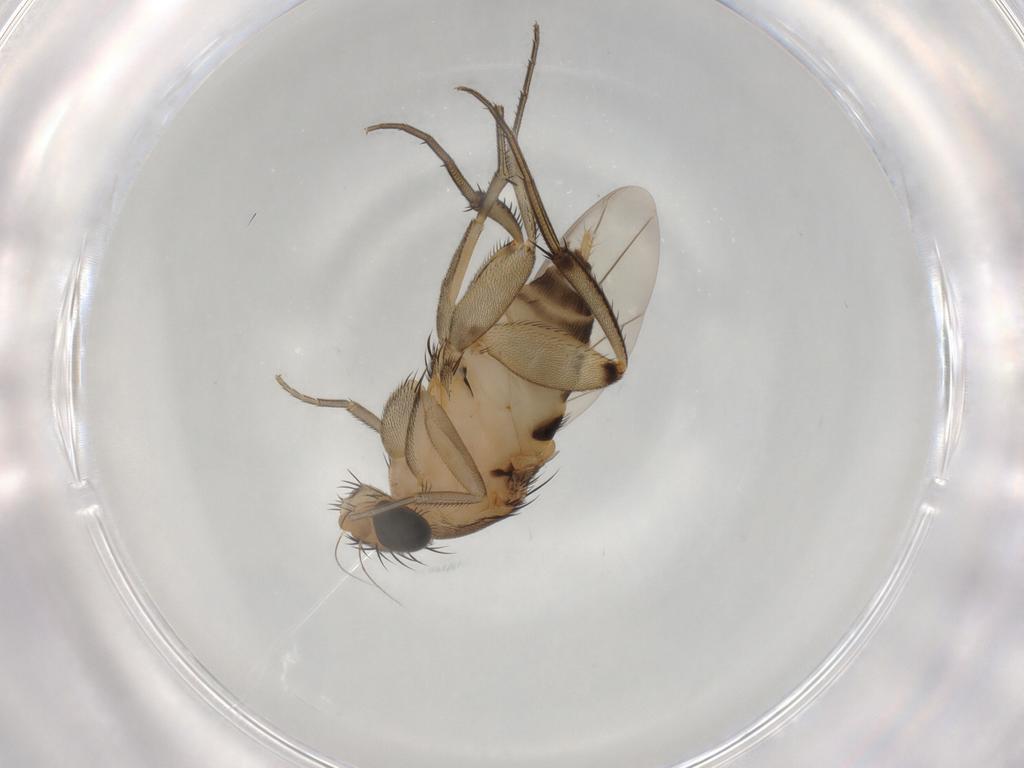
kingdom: Animalia
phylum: Arthropoda
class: Insecta
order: Diptera
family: Phoridae
